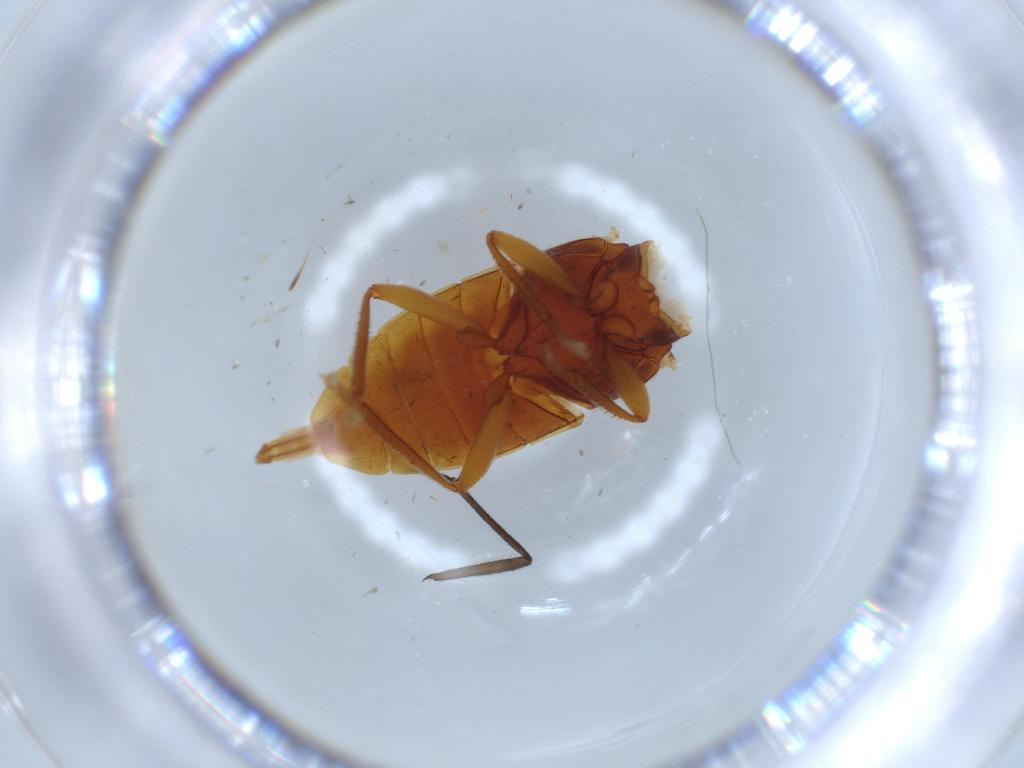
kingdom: Animalia
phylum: Arthropoda
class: Insecta
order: Coleoptera
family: Ptilodactylidae
